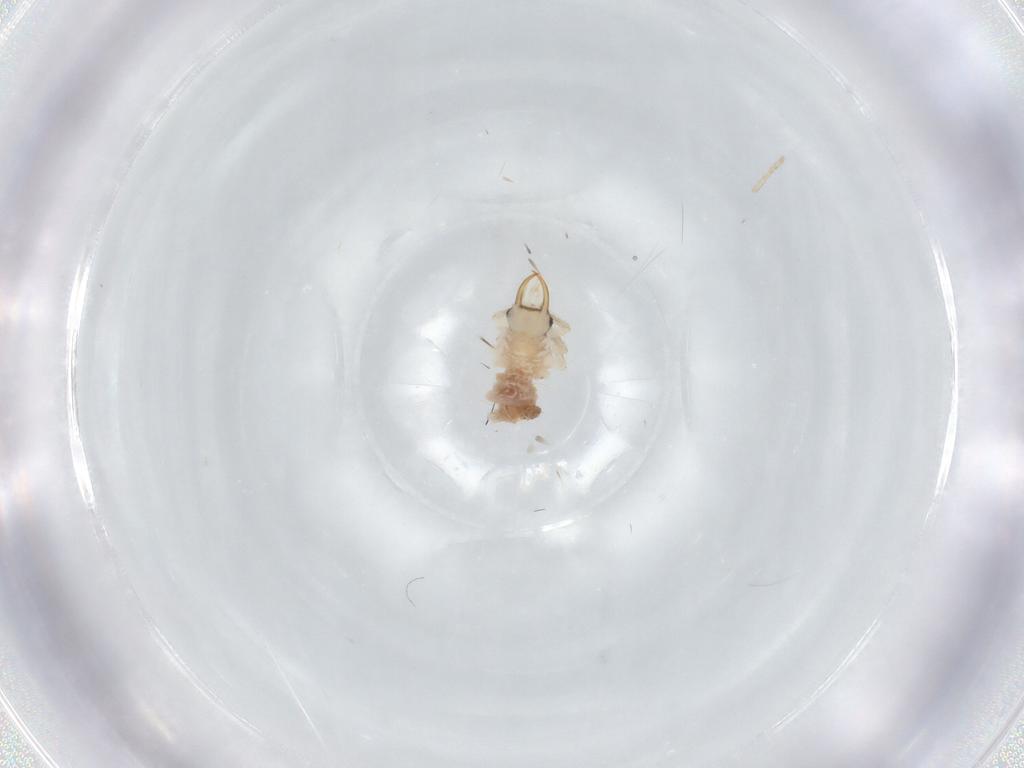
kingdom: Animalia
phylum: Arthropoda
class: Insecta
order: Neuroptera
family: Chrysopidae
